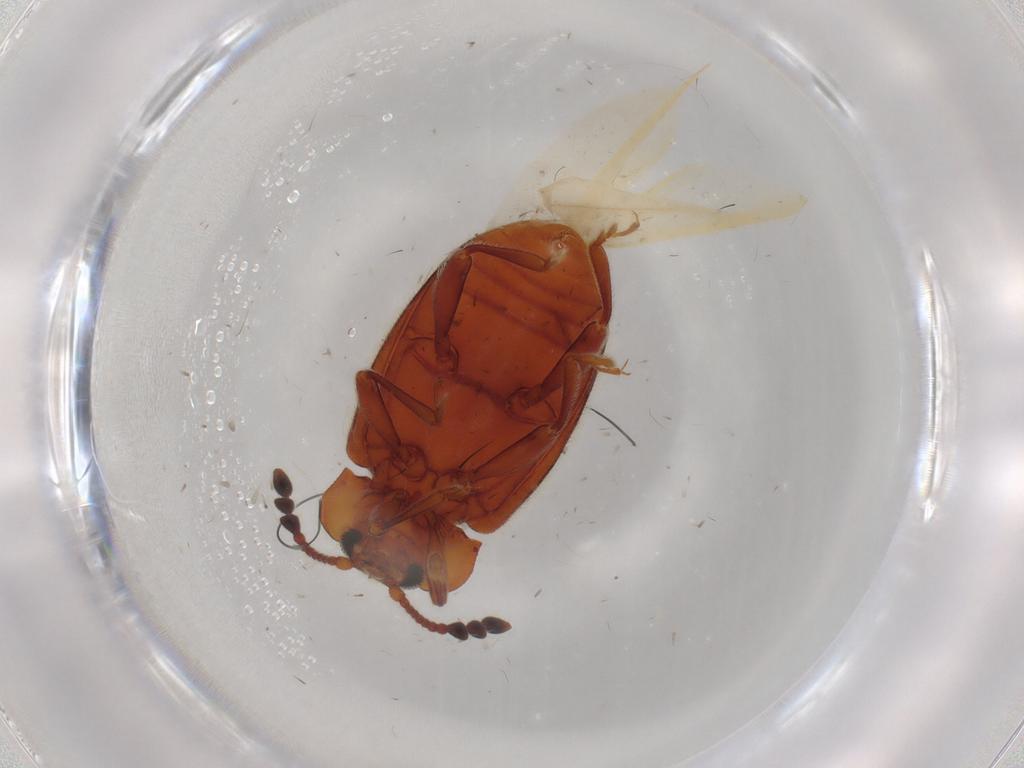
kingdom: Animalia
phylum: Arthropoda
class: Insecta
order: Coleoptera
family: Endomychidae
